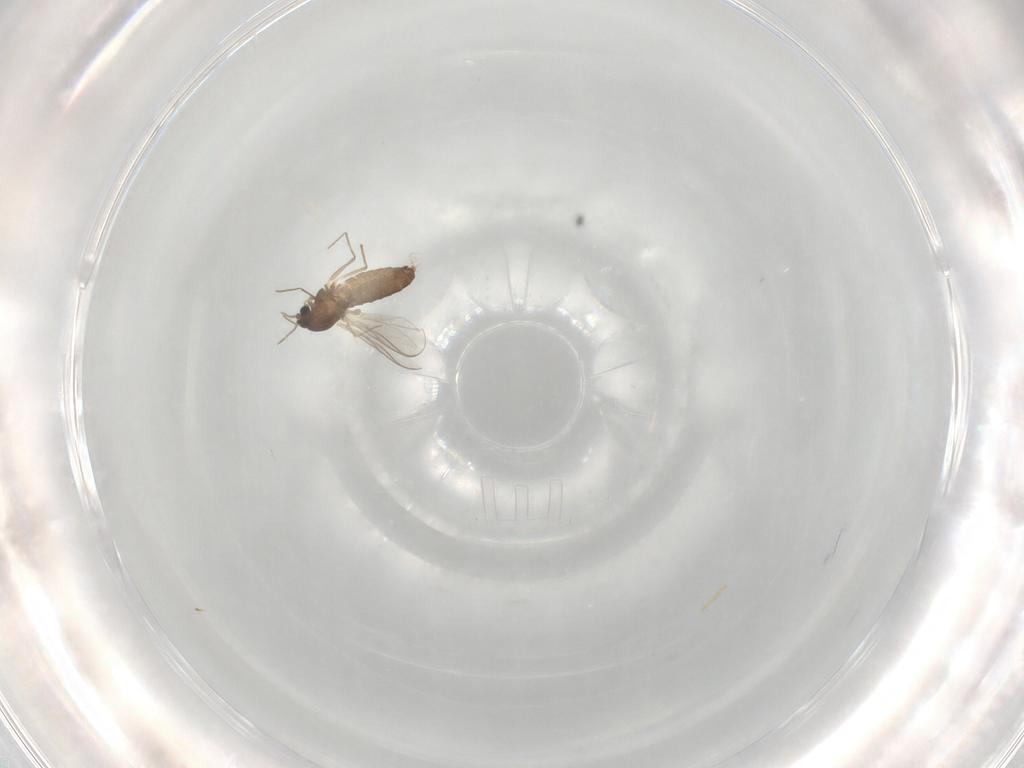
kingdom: Animalia
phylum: Arthropoda
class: Insecta
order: Diptera
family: Chironomidae
